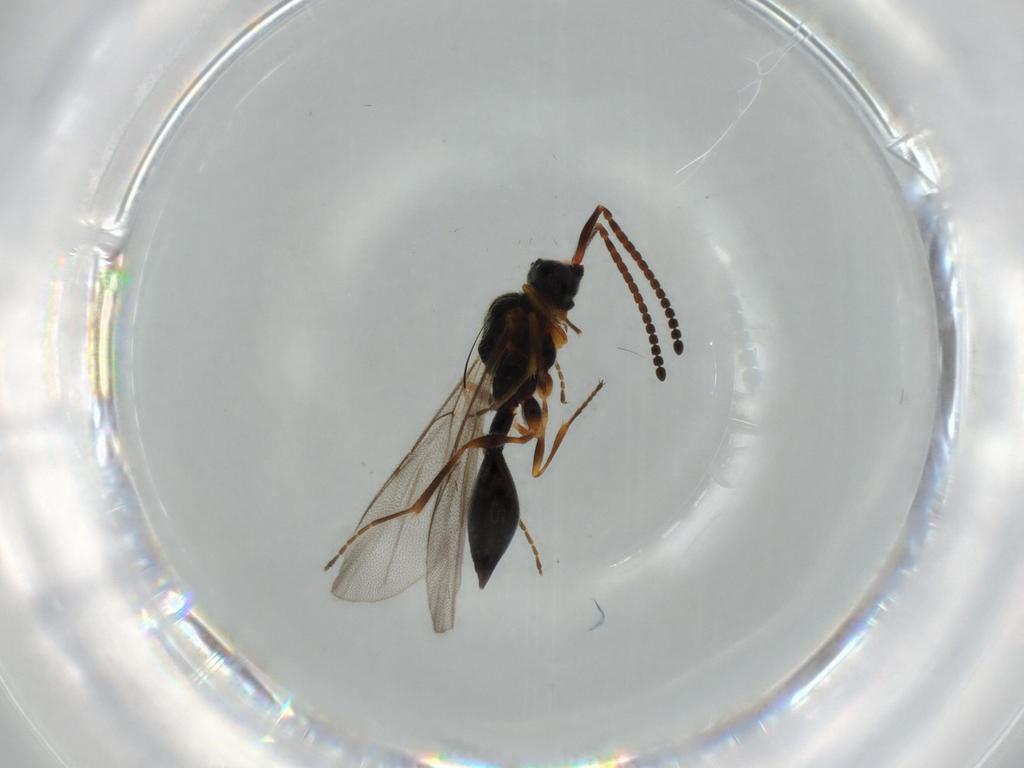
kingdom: Animalia
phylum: Arthropoda
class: Insecta
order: Hymenoptera
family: Diapriidae
